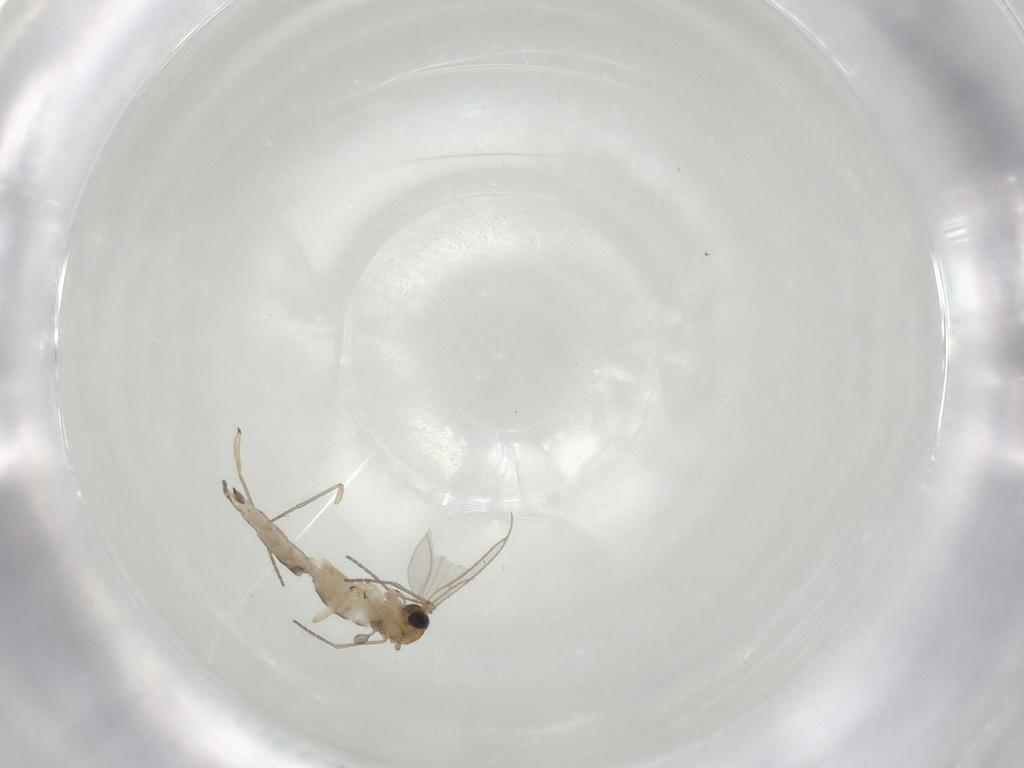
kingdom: Animalia
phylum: Arthropoda
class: Insecta
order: Diptera
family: Sciaridae
